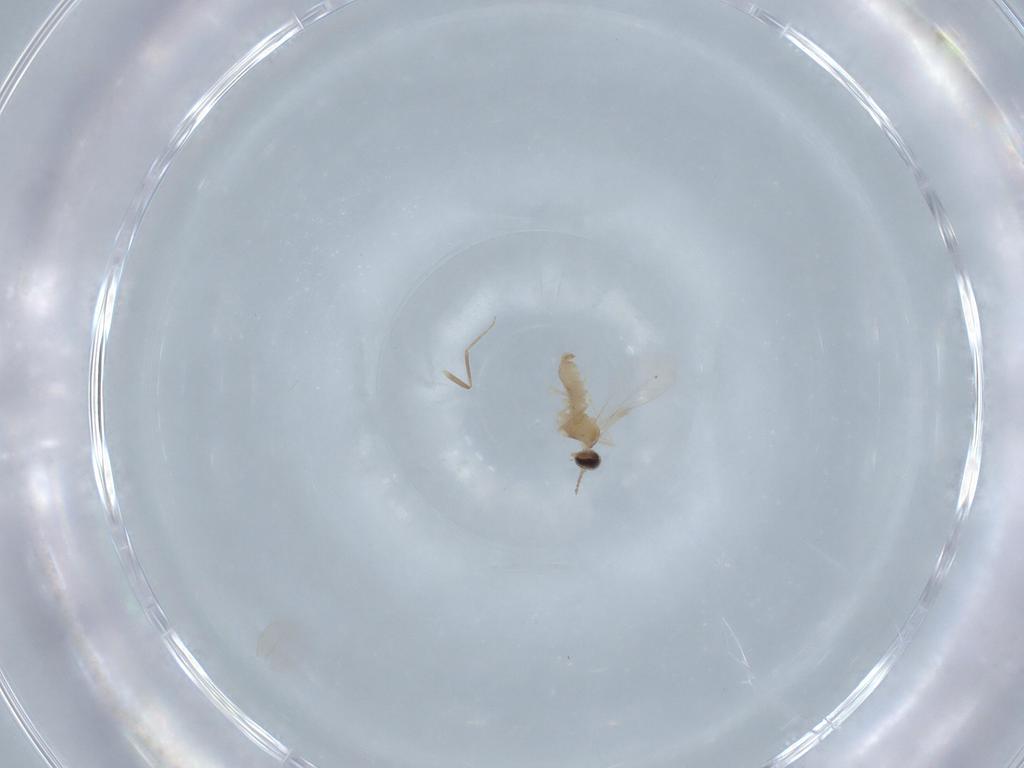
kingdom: Animalia
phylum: Arthropoda
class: Insecta
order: Diptera
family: Cecidomyiidae
